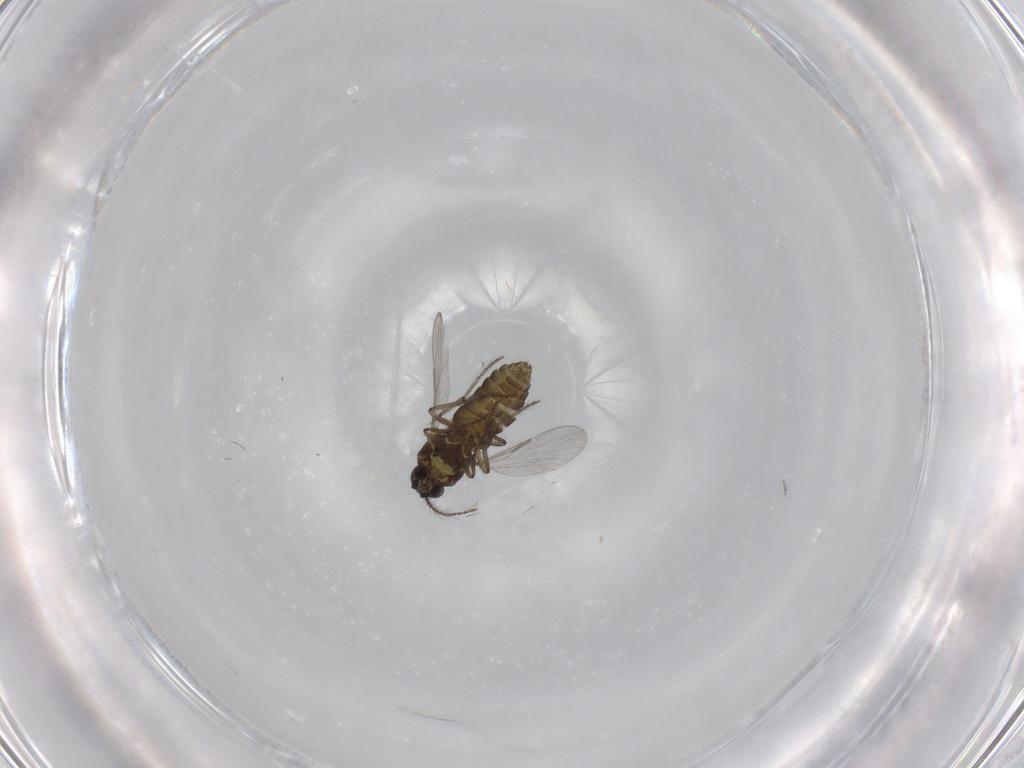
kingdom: Animalia
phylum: Arthropoda
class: Insecta
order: Diptera
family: Ceratopogonidae
